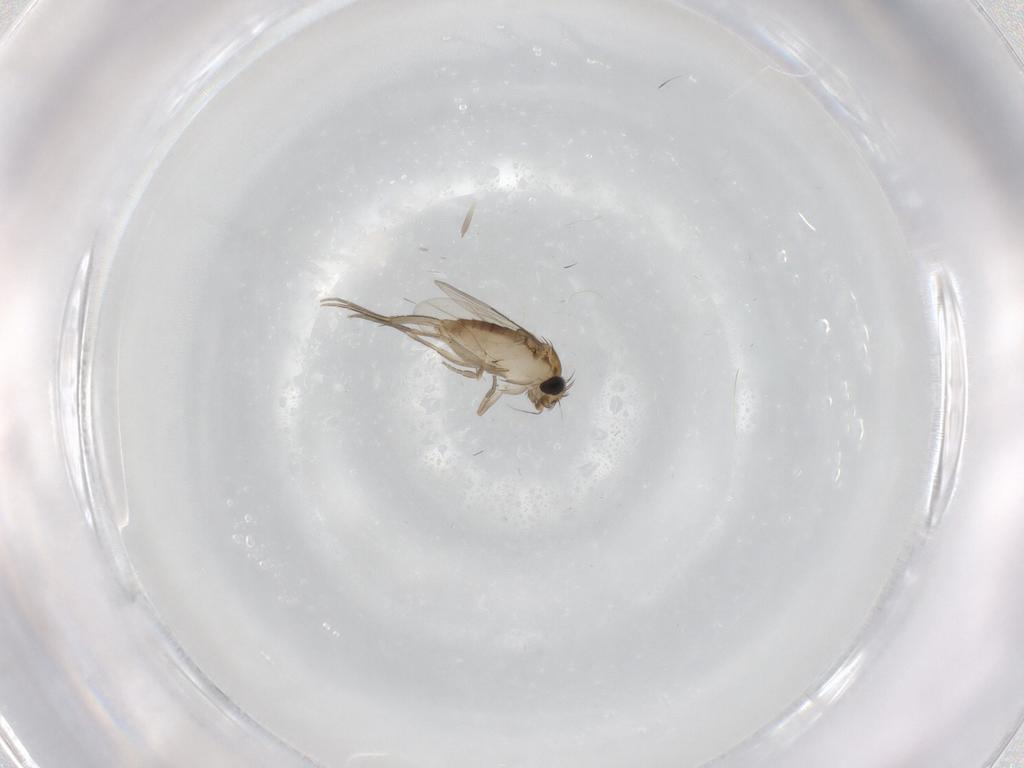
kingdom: Animalia
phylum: Arthropoda
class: Insecta
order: Diptera
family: Phoridae
